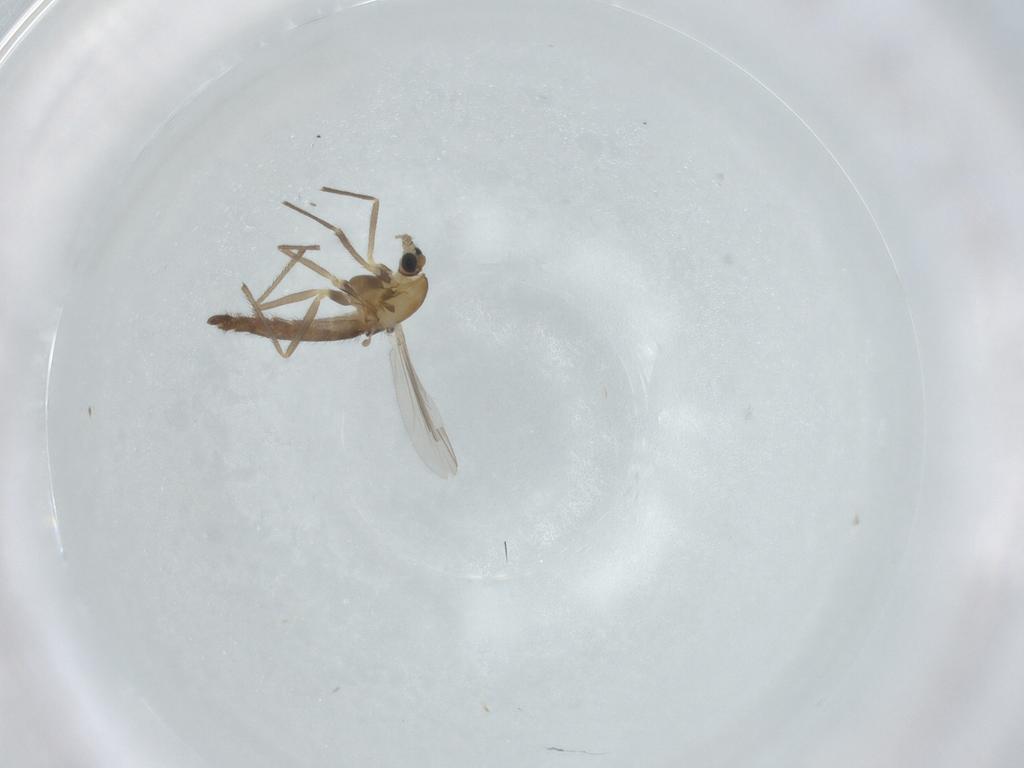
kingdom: Animalia
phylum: Arthropoda
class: Insecta
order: Diptera
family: Chironomidae
